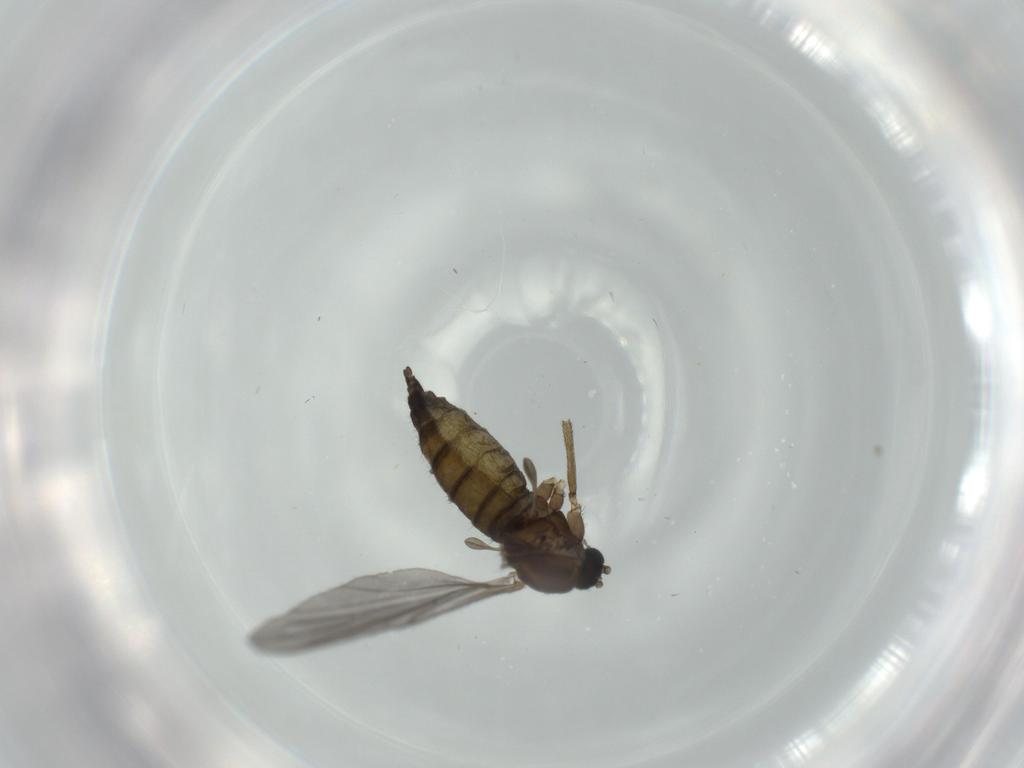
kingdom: Animalia
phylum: Arthropoda
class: Insecta
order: Diptera
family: Sciaridae
